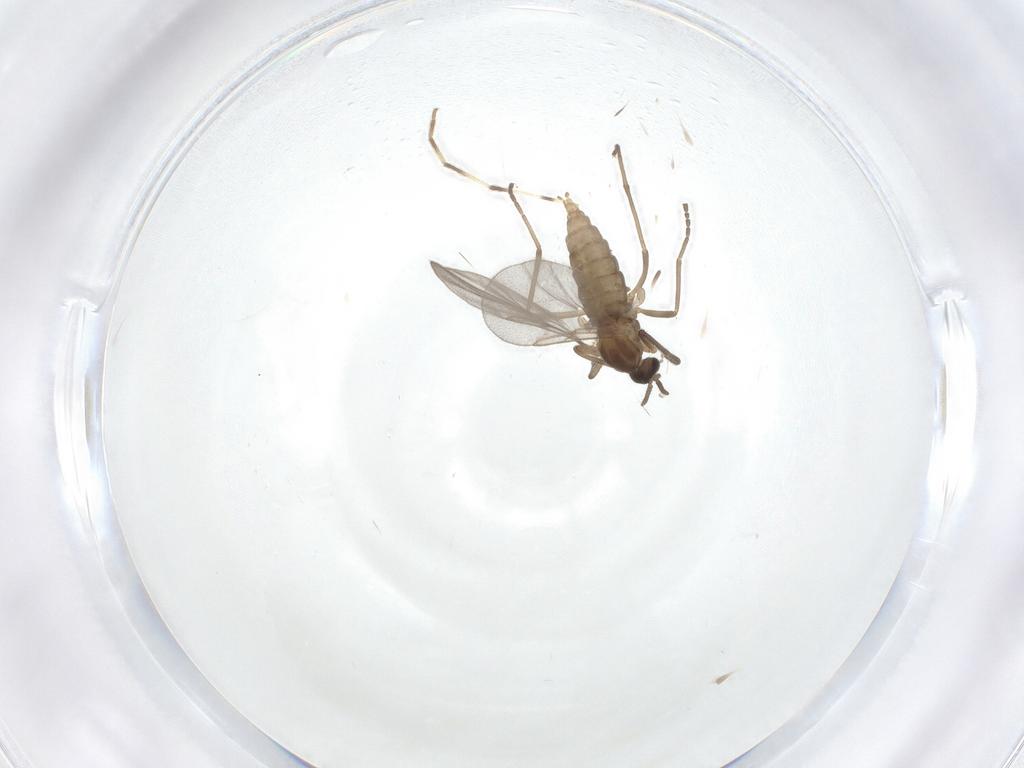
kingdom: Animalia
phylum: Arthropoda
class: Insecta
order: Diptera
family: Cecidomyiidae
